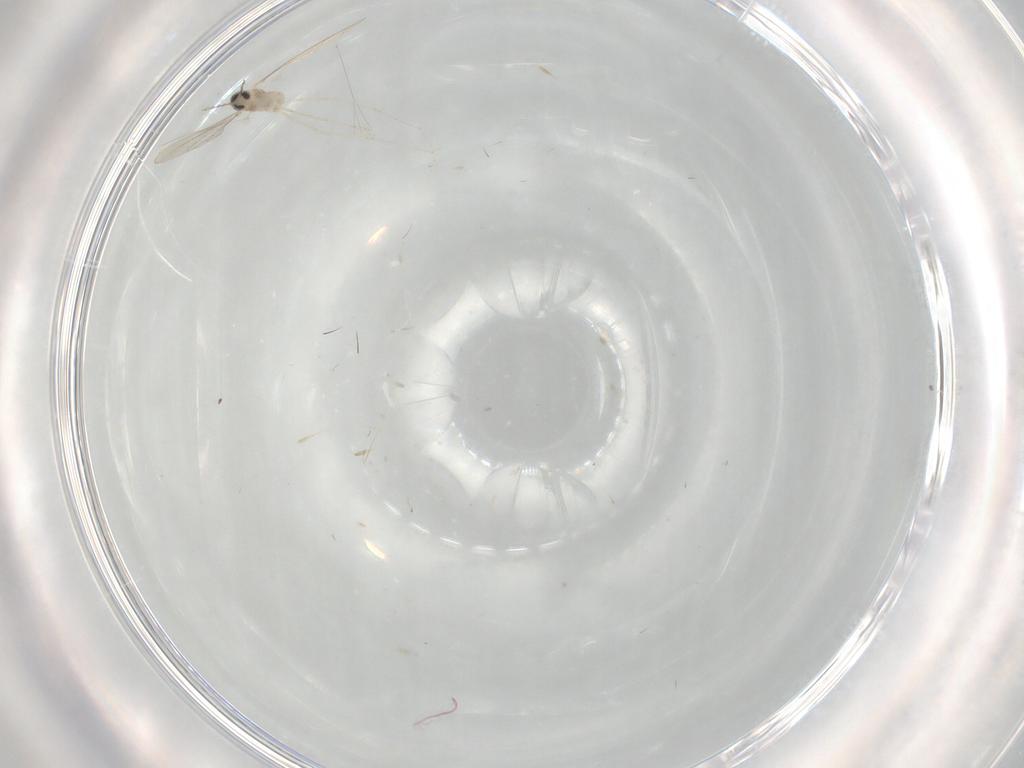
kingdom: Animalia
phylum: Arthropoda
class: Insecta
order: Diptera
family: Cecidomyiidae
